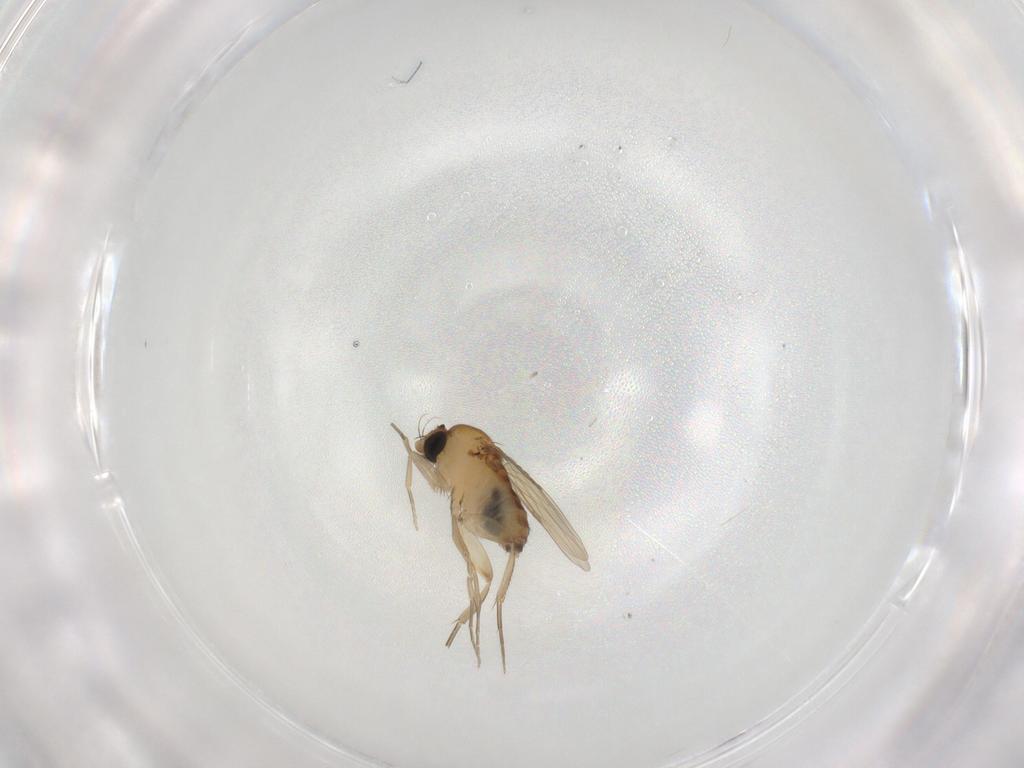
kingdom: Animalia
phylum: Arthropoda
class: Insecta
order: Diptera
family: Phoridae
